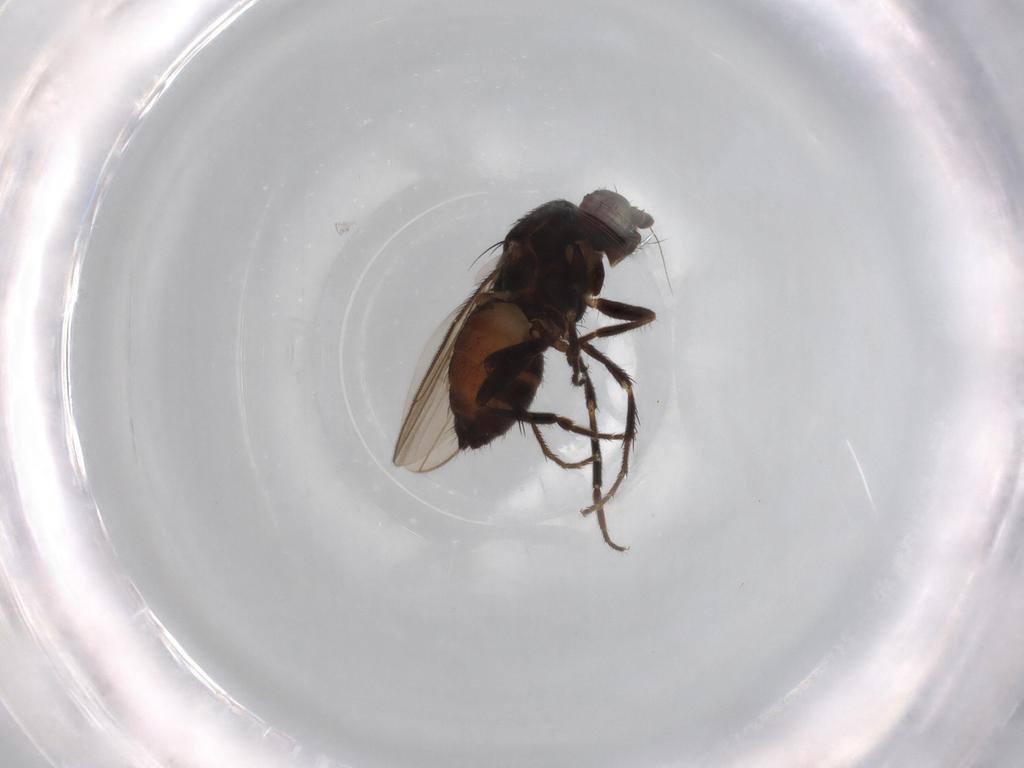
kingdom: Animalia
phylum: Arthropoda
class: Insecta
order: Diptera
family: Sphaeroceridae
